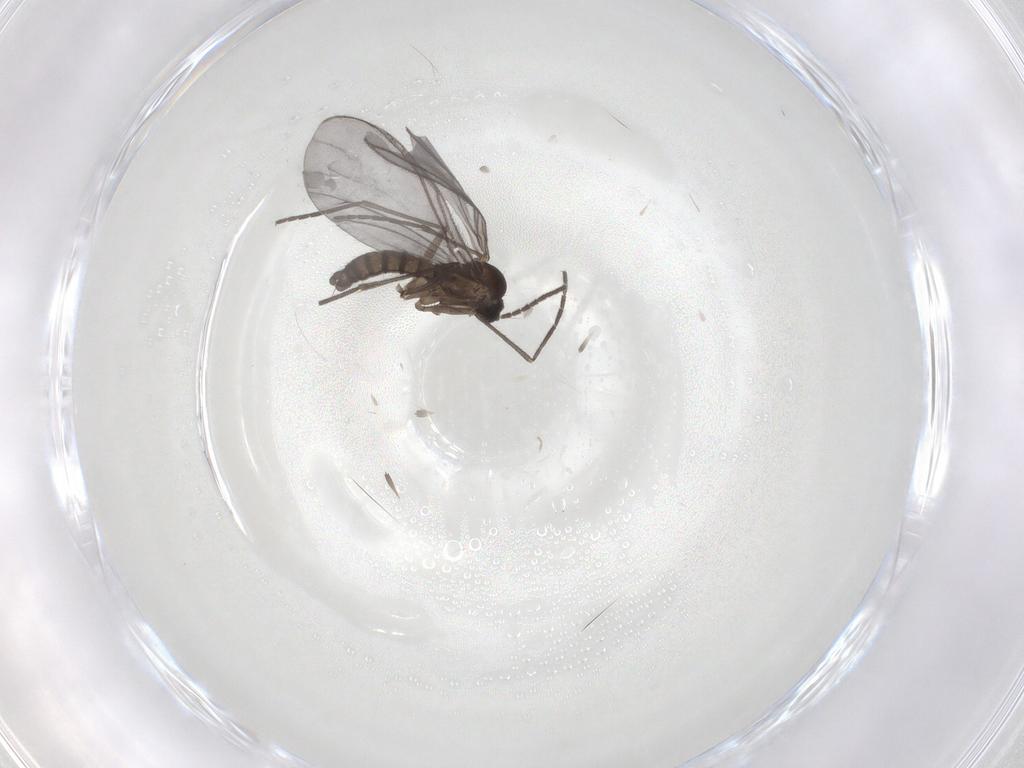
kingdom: Animalia
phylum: Arthropoda
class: Insecta
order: Diptera
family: Sciaridae
